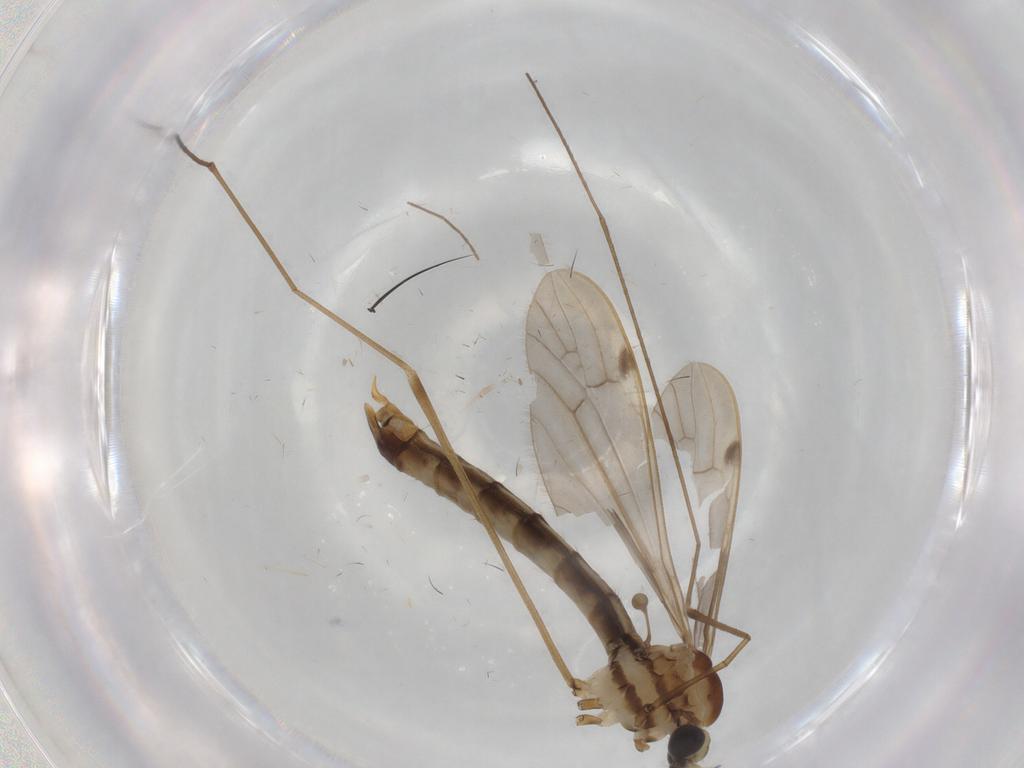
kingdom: Animalia
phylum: Arthropoda
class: Insecta
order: Diptera
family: Limoniidae
